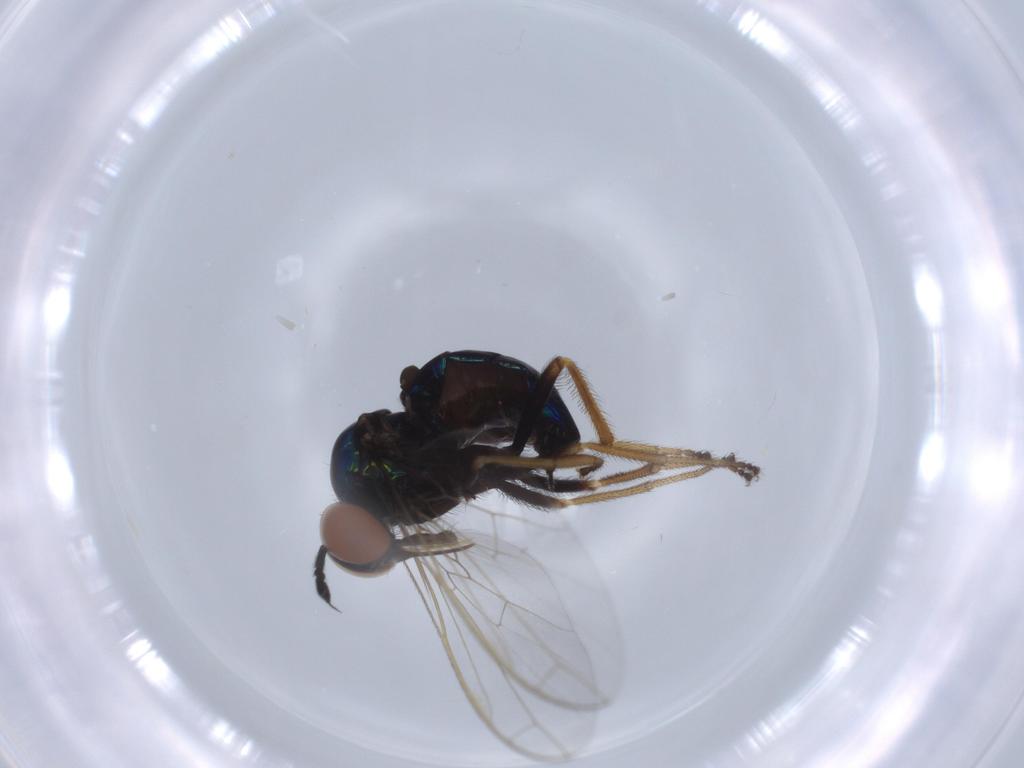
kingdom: Animalia
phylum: Arthropoda
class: Insecta
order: Diptera
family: Empididae
